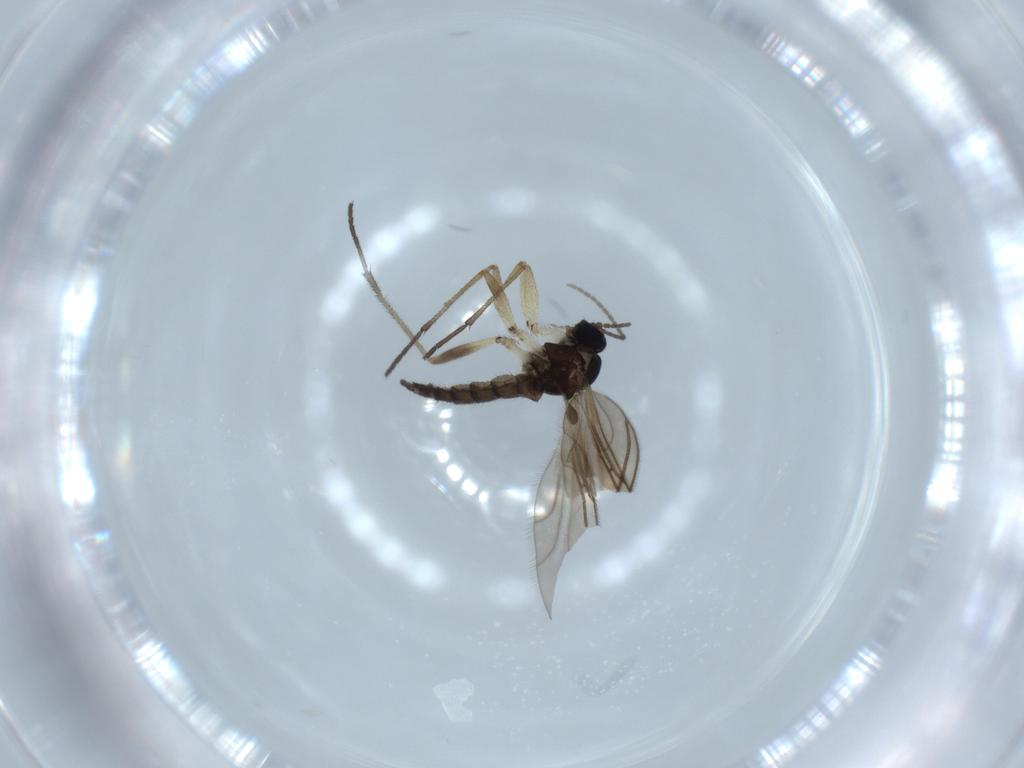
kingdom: Animalia
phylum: Arthropoda
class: Insecta
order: Diptera
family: Sciaridae
